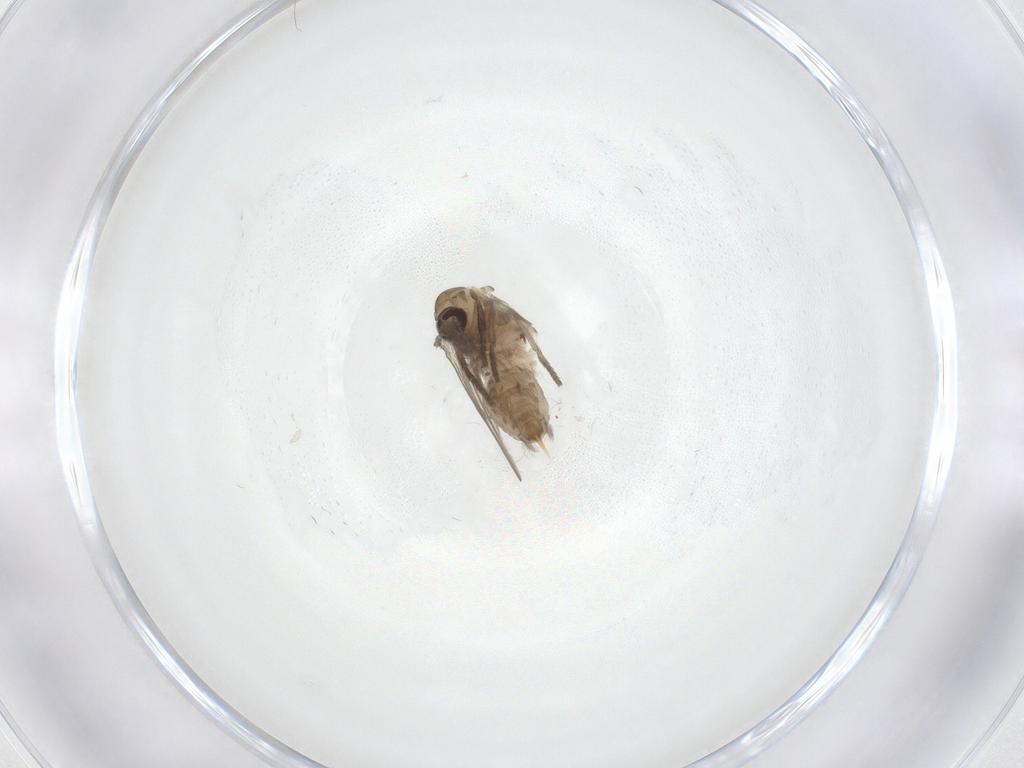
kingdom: Animalia
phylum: Arthropoda
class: Insecta
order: Diptera
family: Psychodidae
